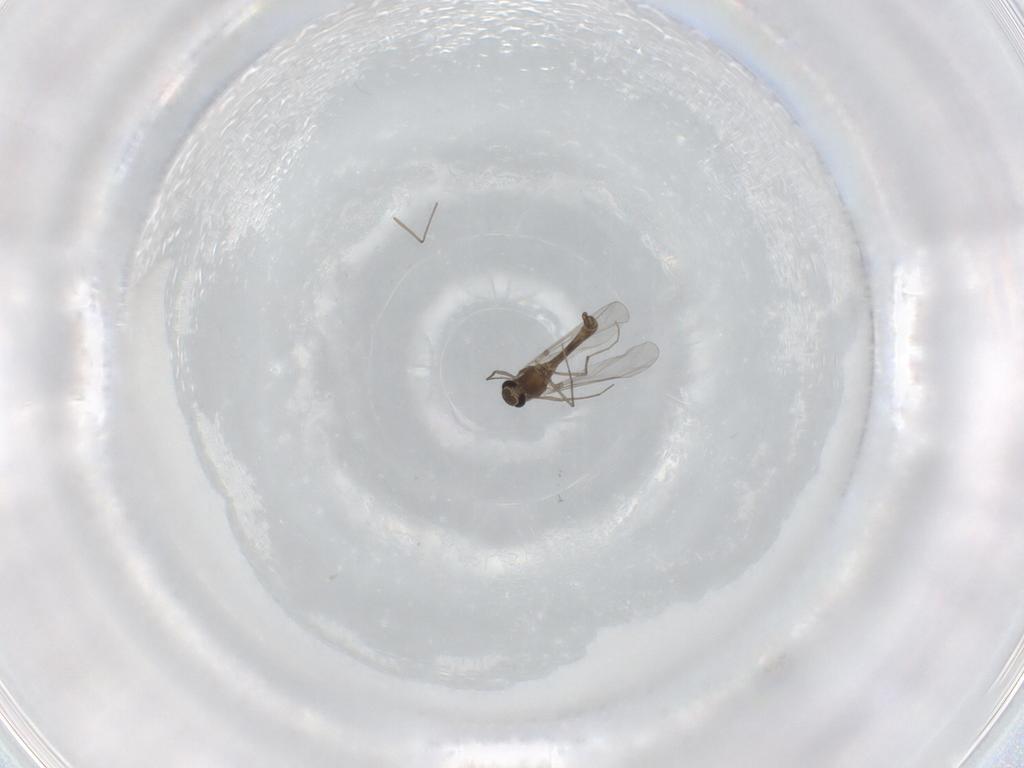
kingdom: Animalia
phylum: Arthropoda
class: Insecta
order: Diptera
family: Chironomidae
